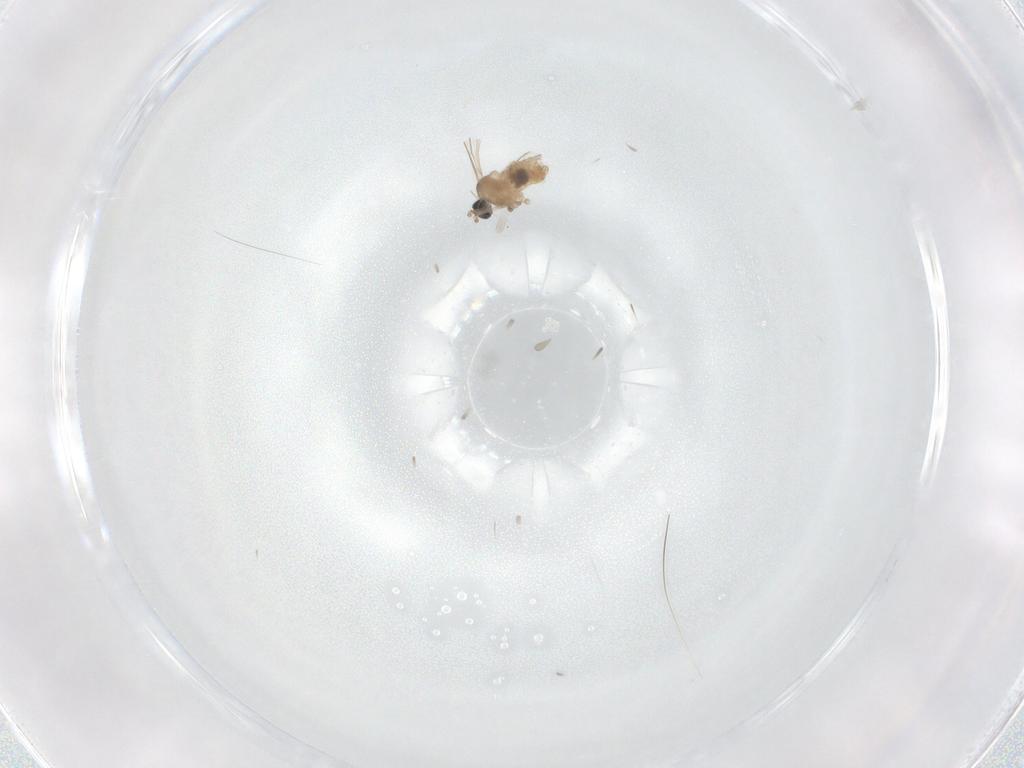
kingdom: Animalia
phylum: Arthropoda
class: Insecta
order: Diptera
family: Cecidomyiidae
